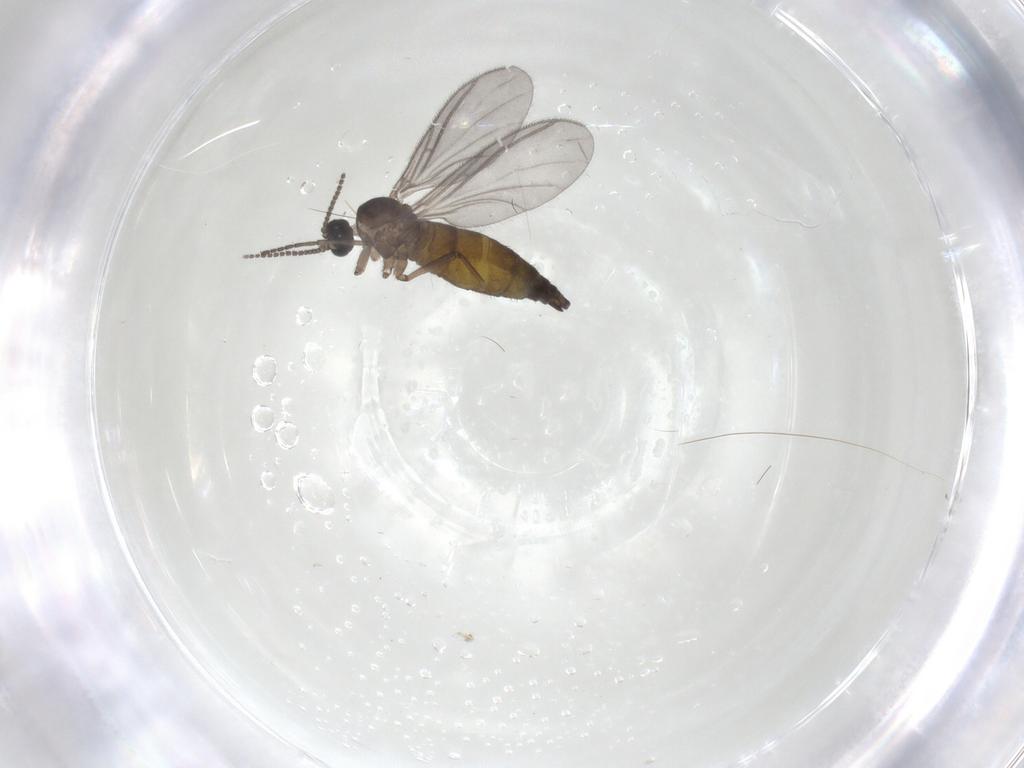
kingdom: Animalia
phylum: Arthropoda
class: Insecta
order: Diptera
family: Sciaridae
